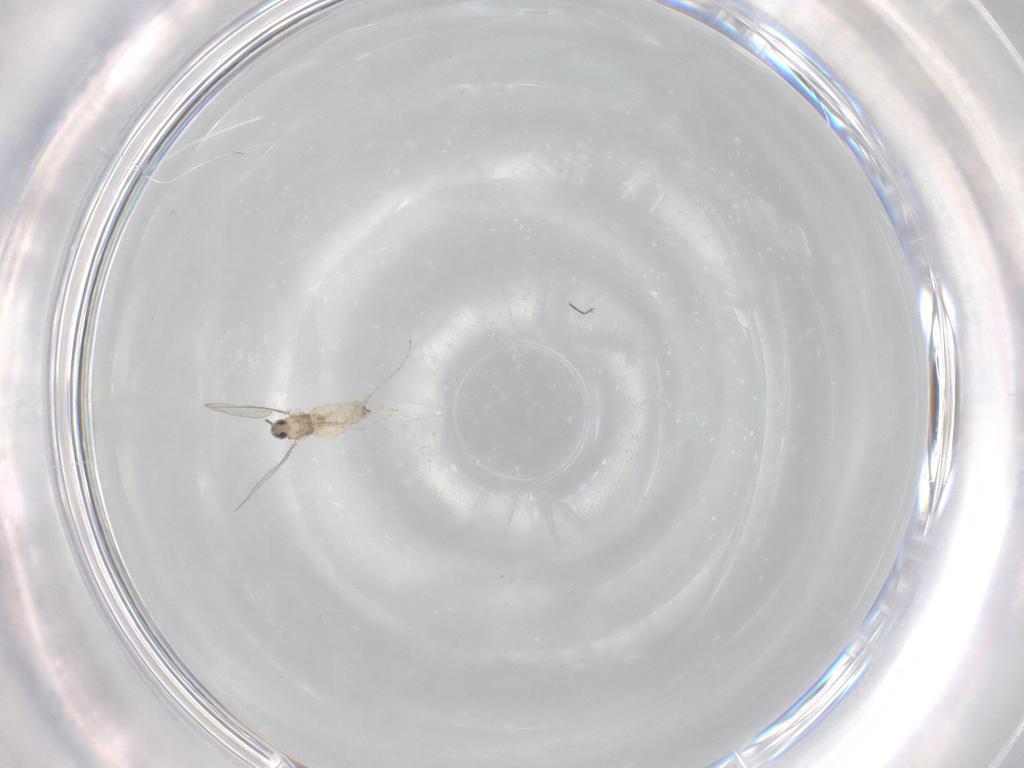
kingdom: Animalia
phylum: Arthropoda
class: Insecta
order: Diptera
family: Cecidomyiidae
